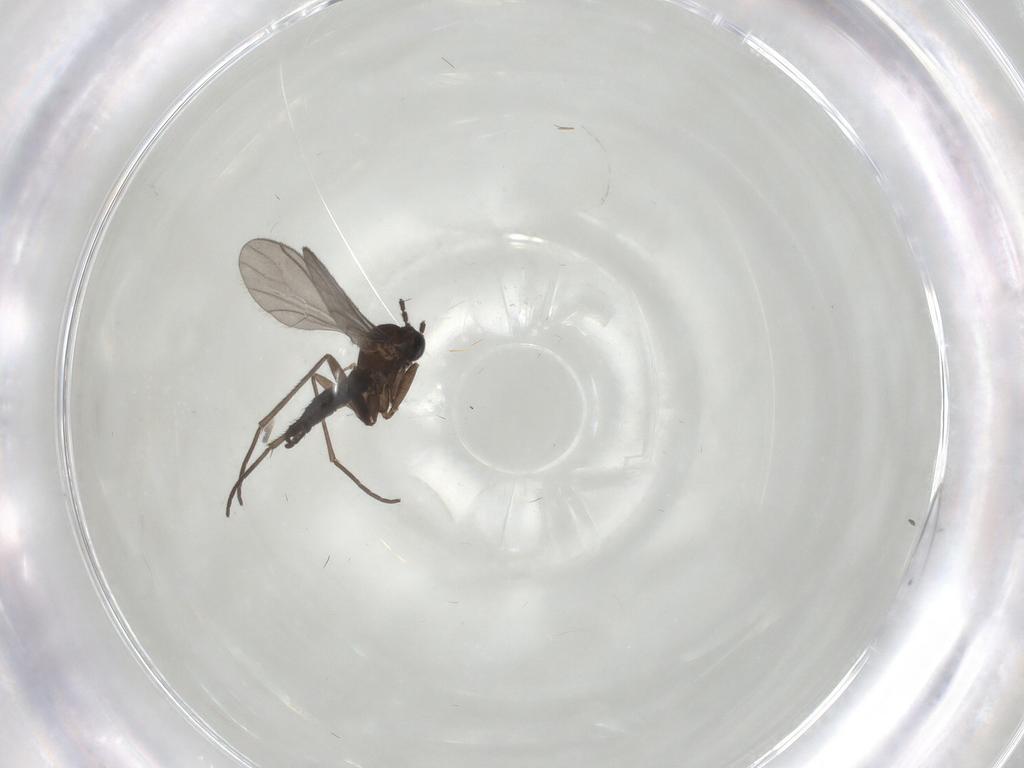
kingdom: Animalia
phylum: Arthropoda
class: Insecta
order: Diptera
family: Sciaridae
